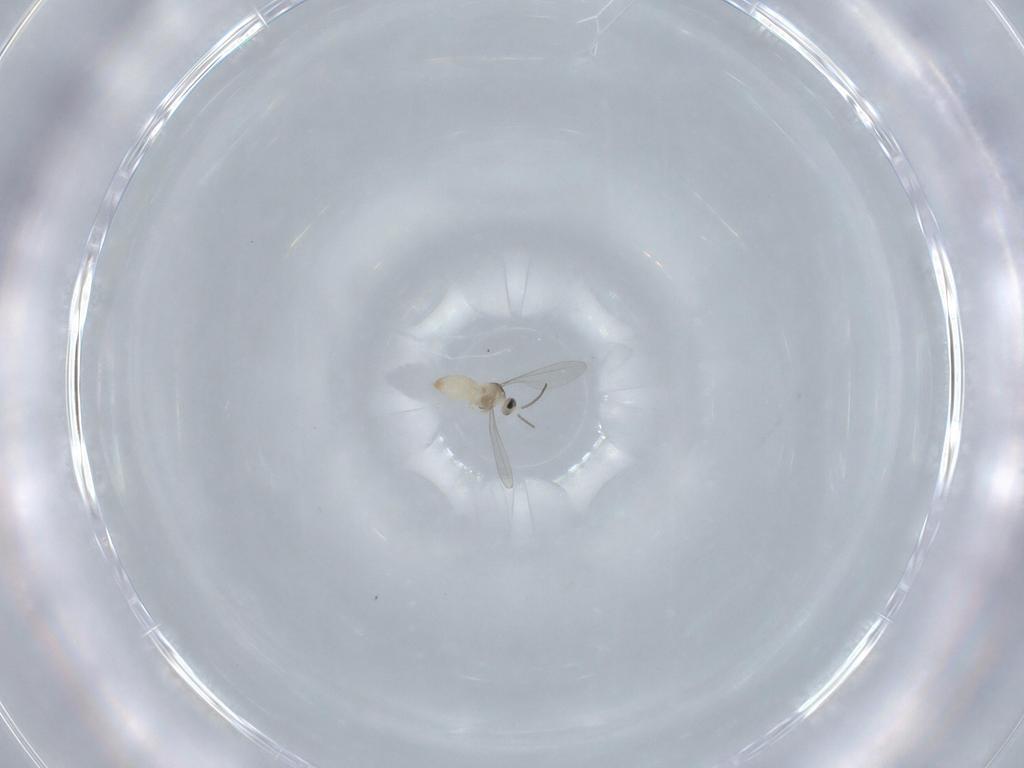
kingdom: Animalia
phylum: Arthropoda
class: Insecta
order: Diptera
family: Cecidomyiidae
